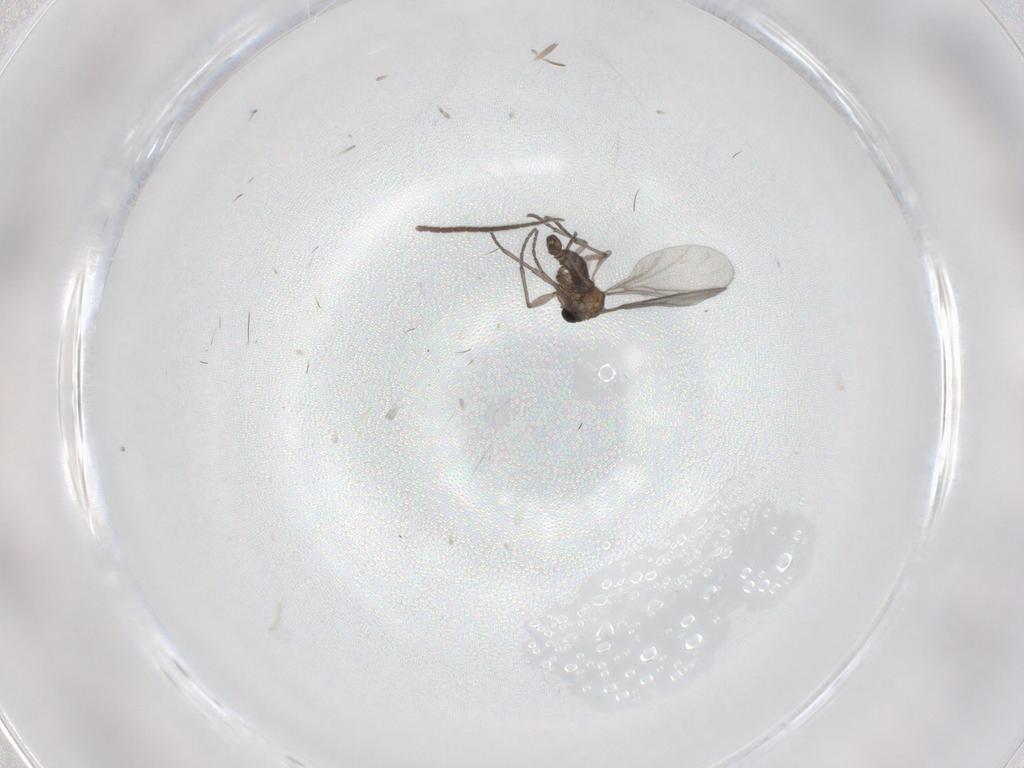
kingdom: Animalia
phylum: Arthropoda
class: Insecta
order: Diptera
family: Sciaridae
